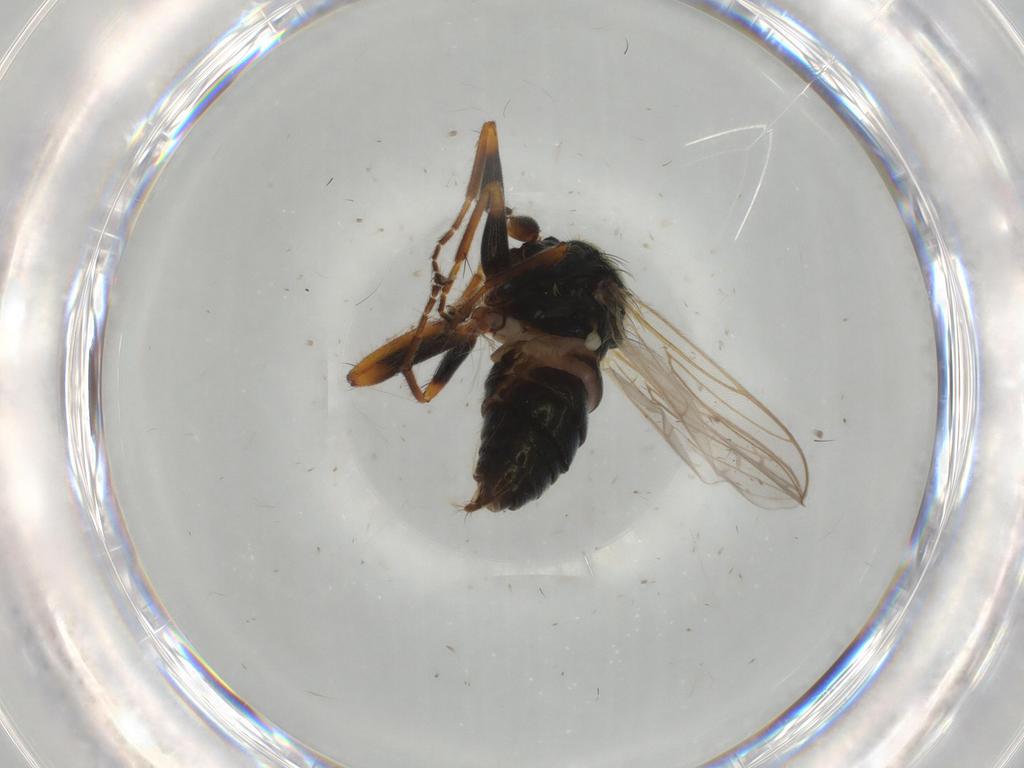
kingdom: Animalia
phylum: Arthropoda
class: Insecta
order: Diptera
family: Hybotidae
